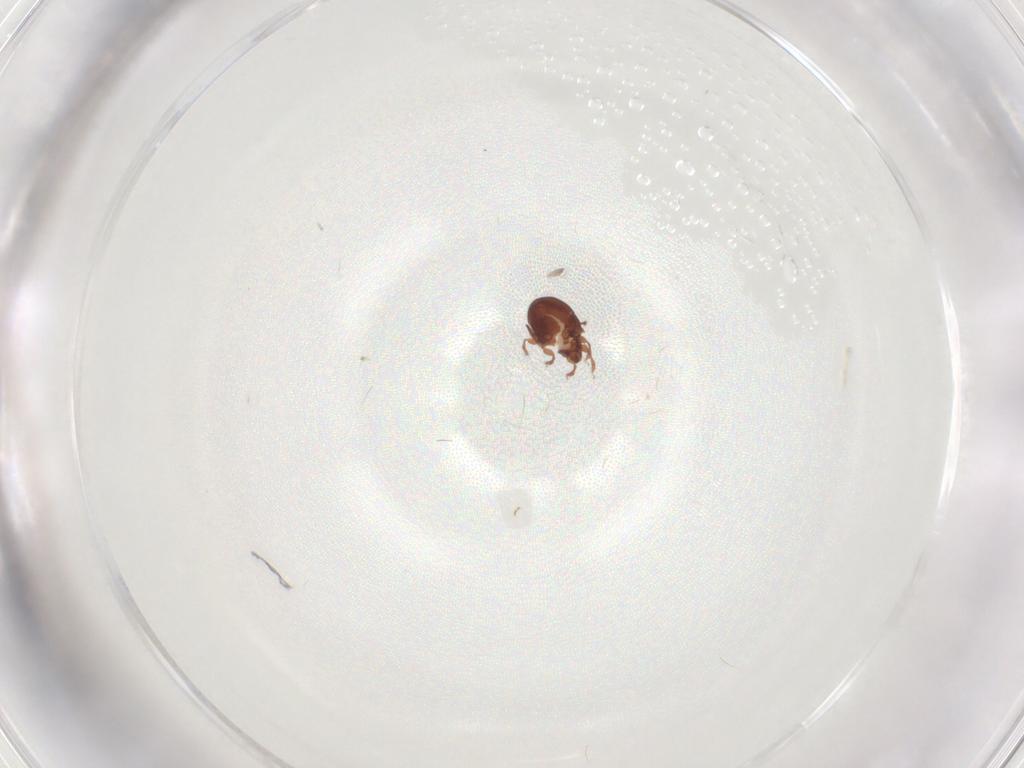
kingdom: Animalia
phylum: Arthropoda
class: Arachnida
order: Sarcoptiformes
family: Humerobatidae
